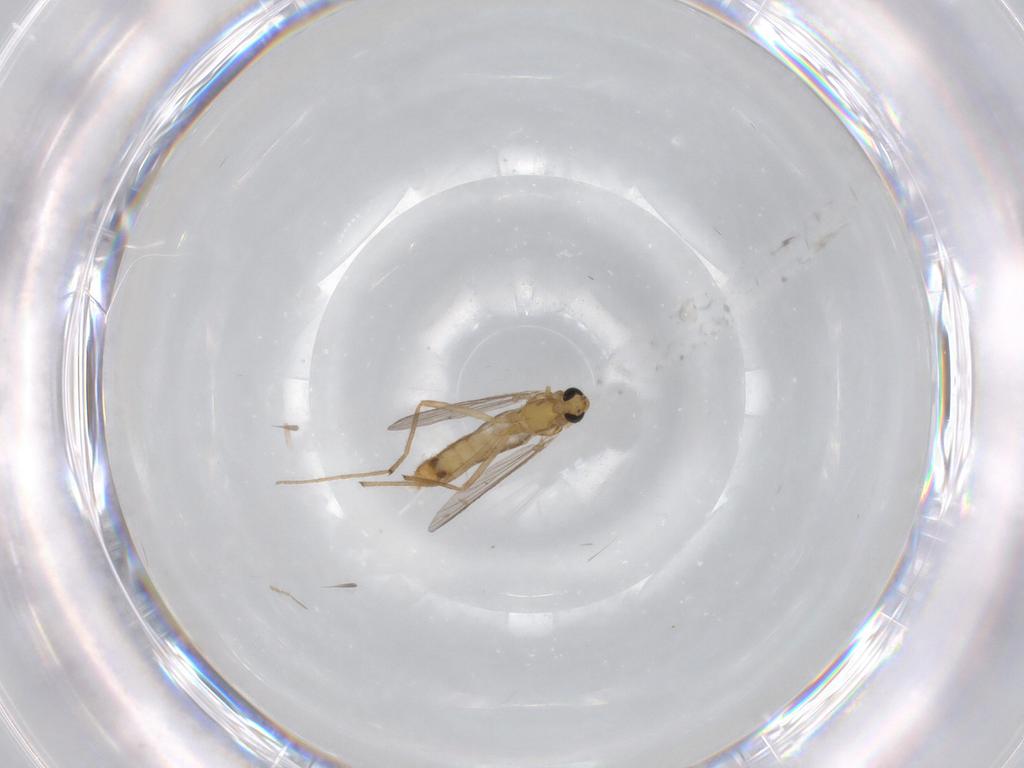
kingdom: Animalia
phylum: Arthropoda
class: Insecta
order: Diptera
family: Chironomidae
